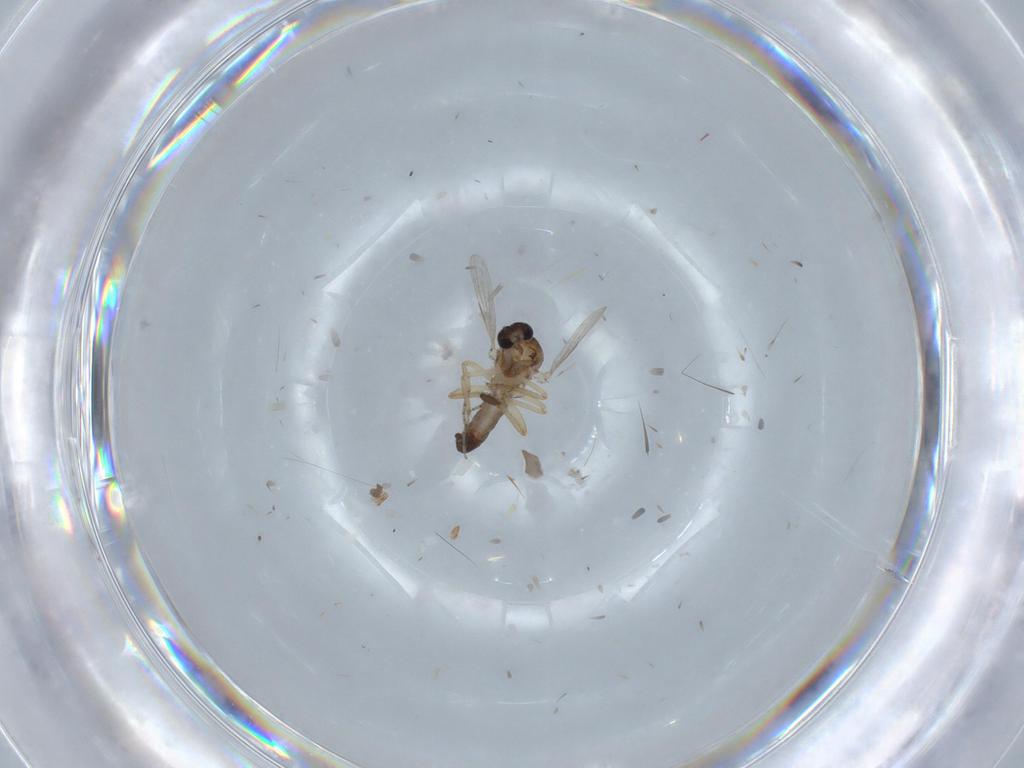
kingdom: Animalia
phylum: Arthropoda
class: Insecta
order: Diptera
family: Ceratopogonidae
